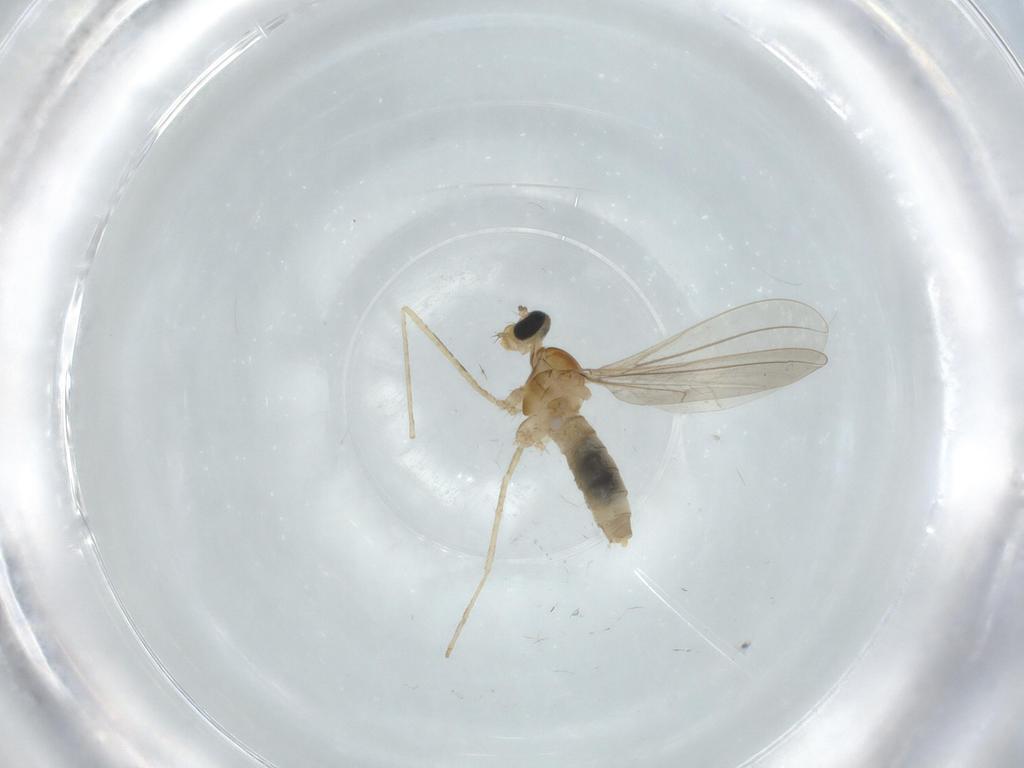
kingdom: Animalia
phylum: Arthropoda
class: Insecta
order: Diptera
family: Cecidomyiidae
